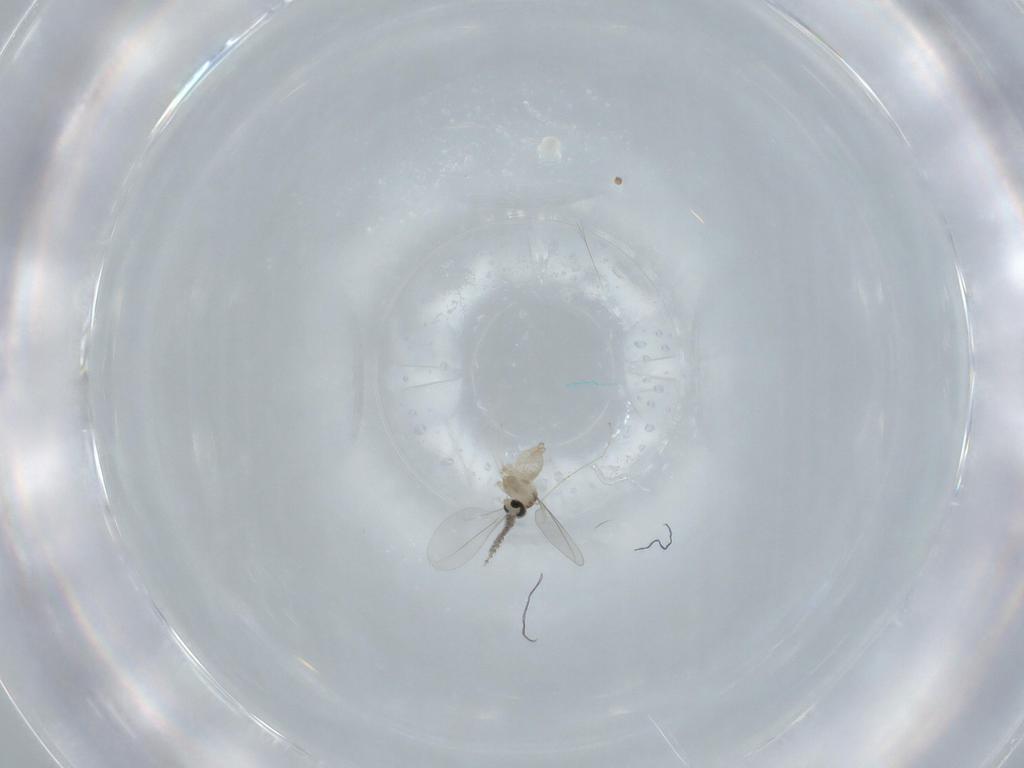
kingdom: Animalia
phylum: Arthropoda
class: Insecta
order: Diptera
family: Cecidomyiidae
